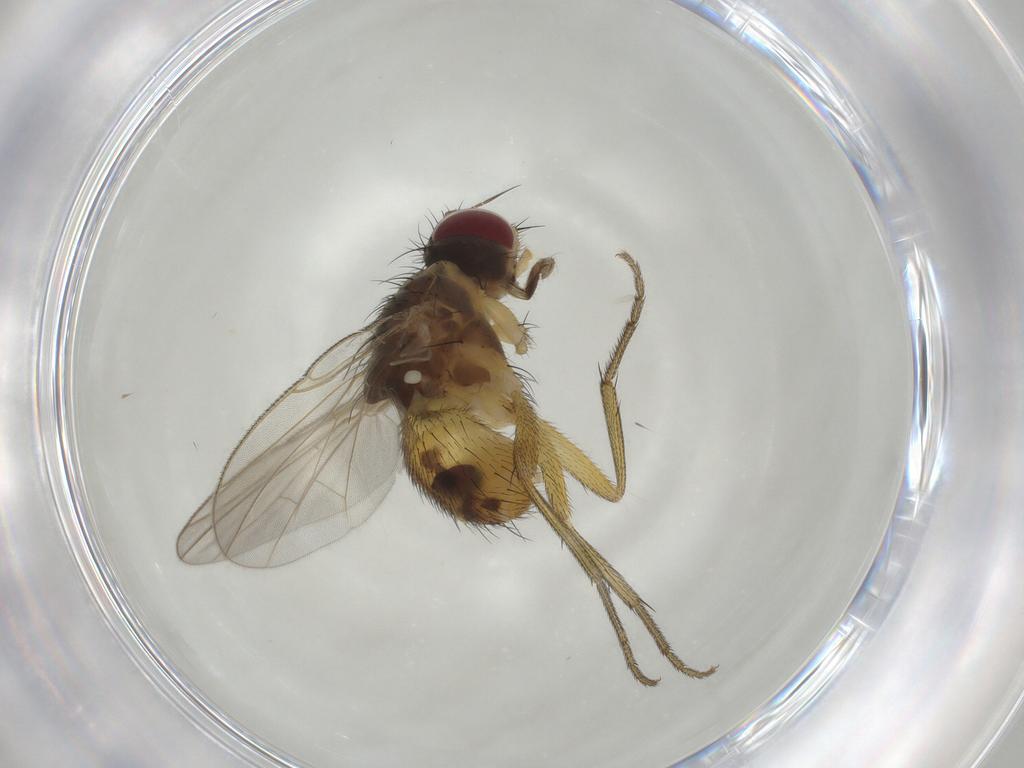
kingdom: Animalia
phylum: Arthropoda
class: Insecta
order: Diptera
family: Muscidae
